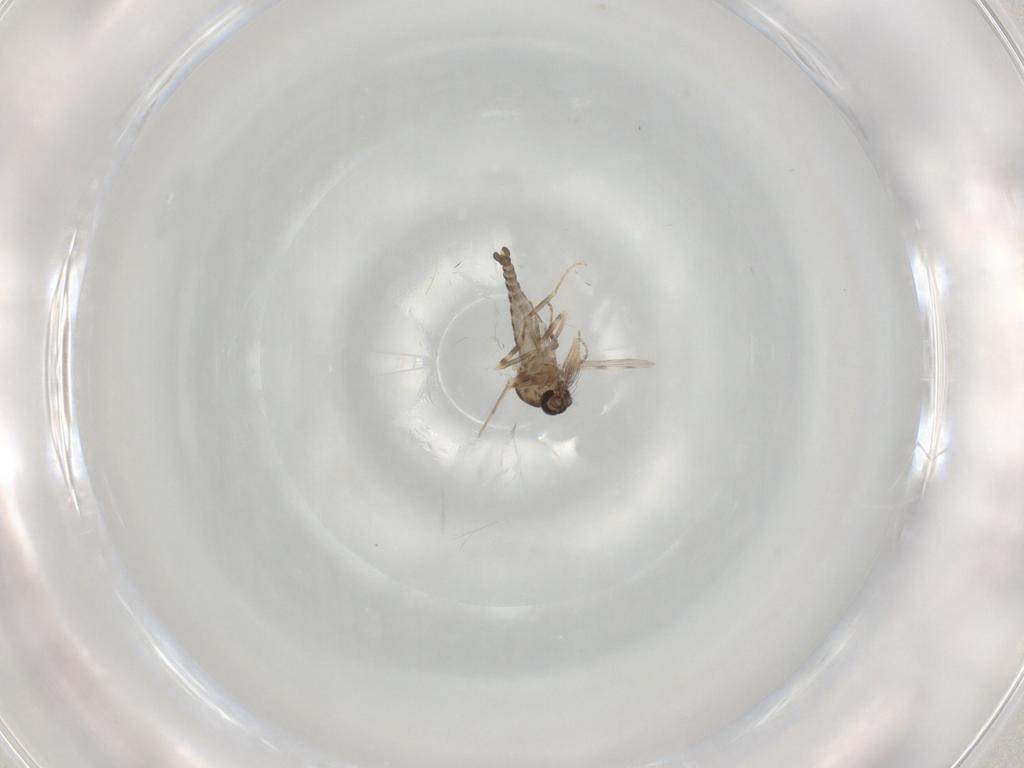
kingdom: Animalia
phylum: Arthropoda
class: Insecta
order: Diptera
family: Ceratopogonidae
